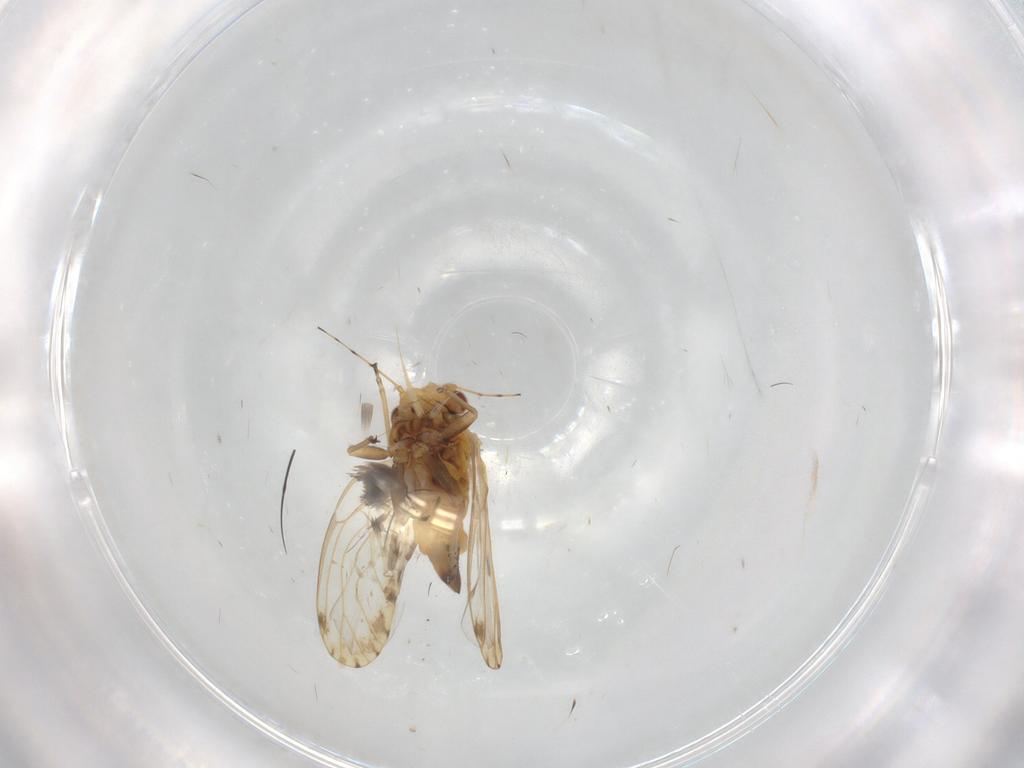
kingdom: Animalia
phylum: Arthropoda
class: Insecta
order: Hemiptera
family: Psyllidae
